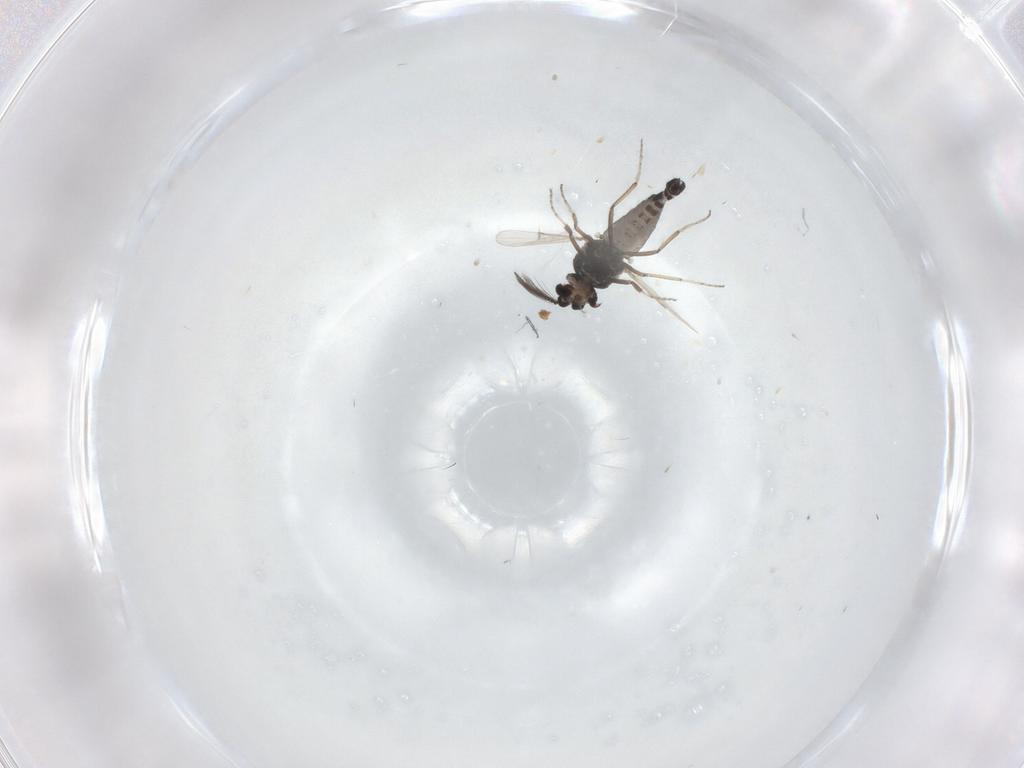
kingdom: Animalia
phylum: Arthropoda
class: Insecta
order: Diptera
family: Ceratopogonidae
